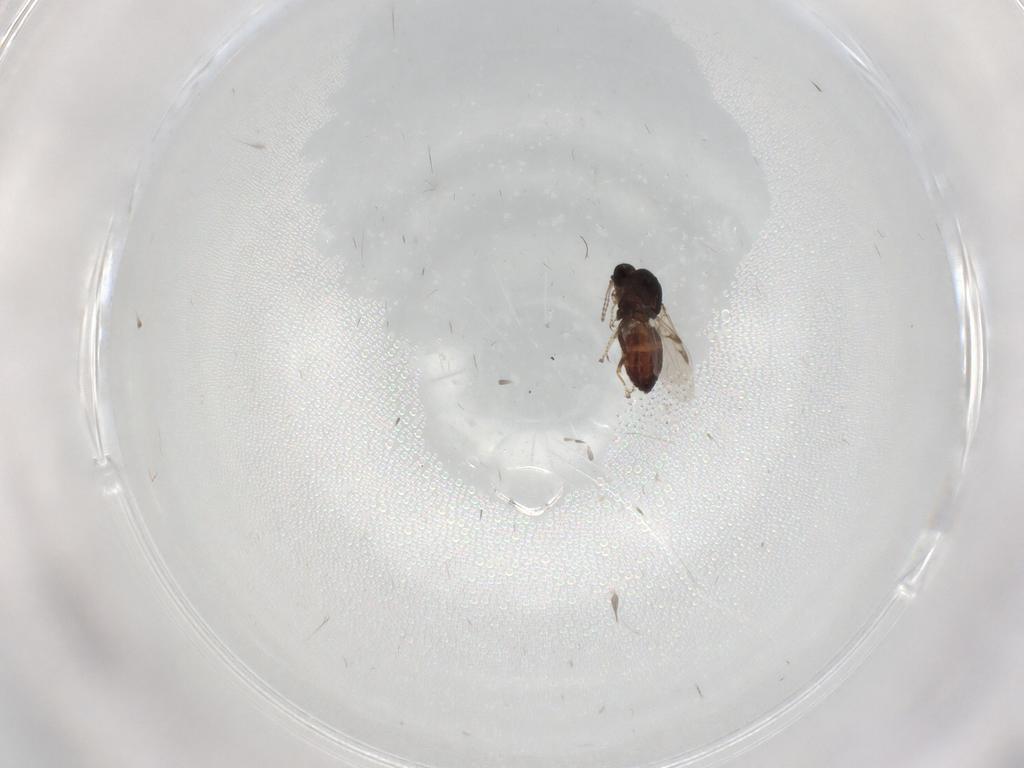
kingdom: Animalia
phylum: Arthropoda
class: Insecta
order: Diptera
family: Ceratopogonidae
